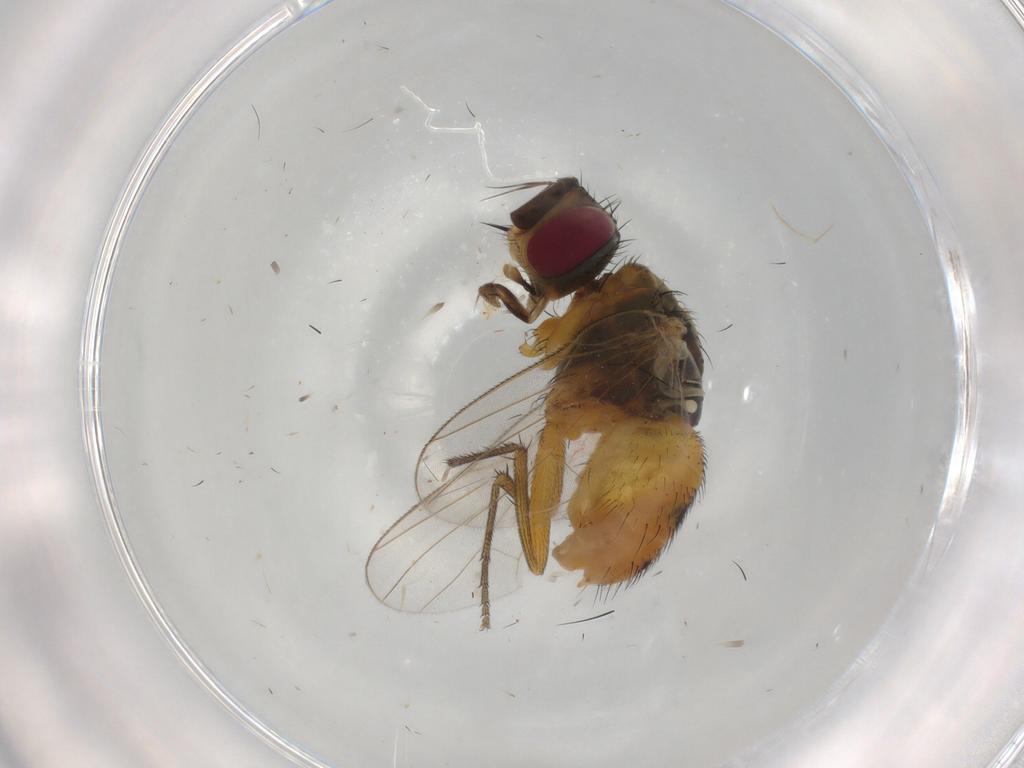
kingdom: Animalia
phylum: Arthropoda
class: Insecta
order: Diptera
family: Muscidae
